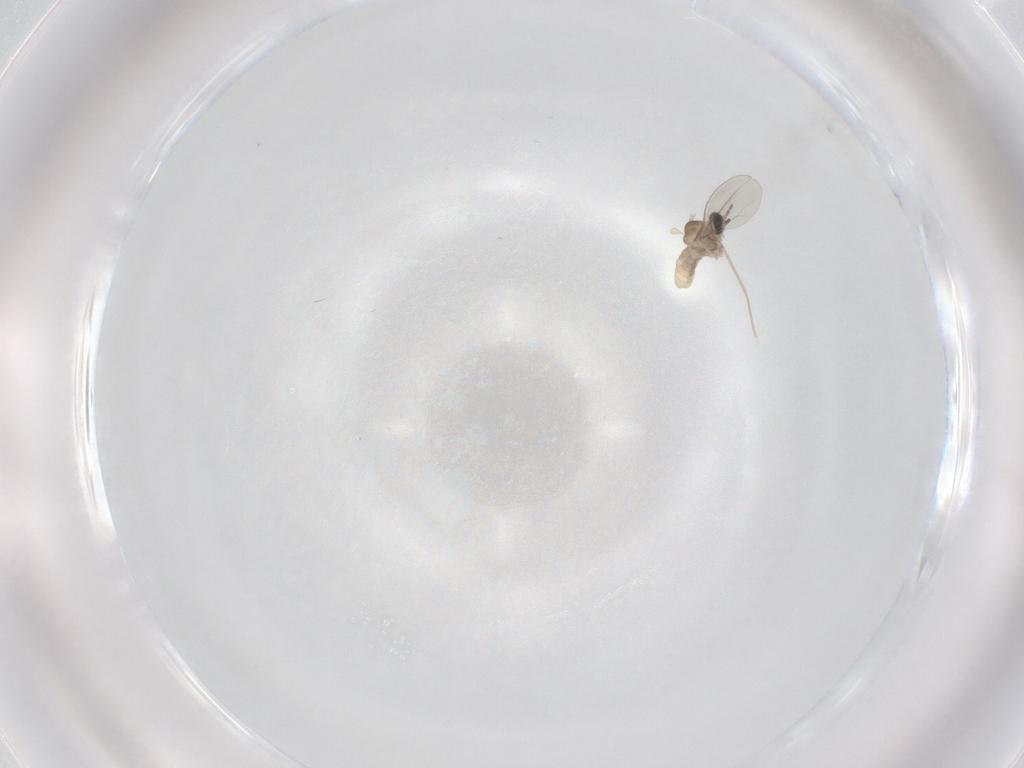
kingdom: Animalia
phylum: Arthropoda
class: Insecta
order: Diptera
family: Cecidomyiidae
